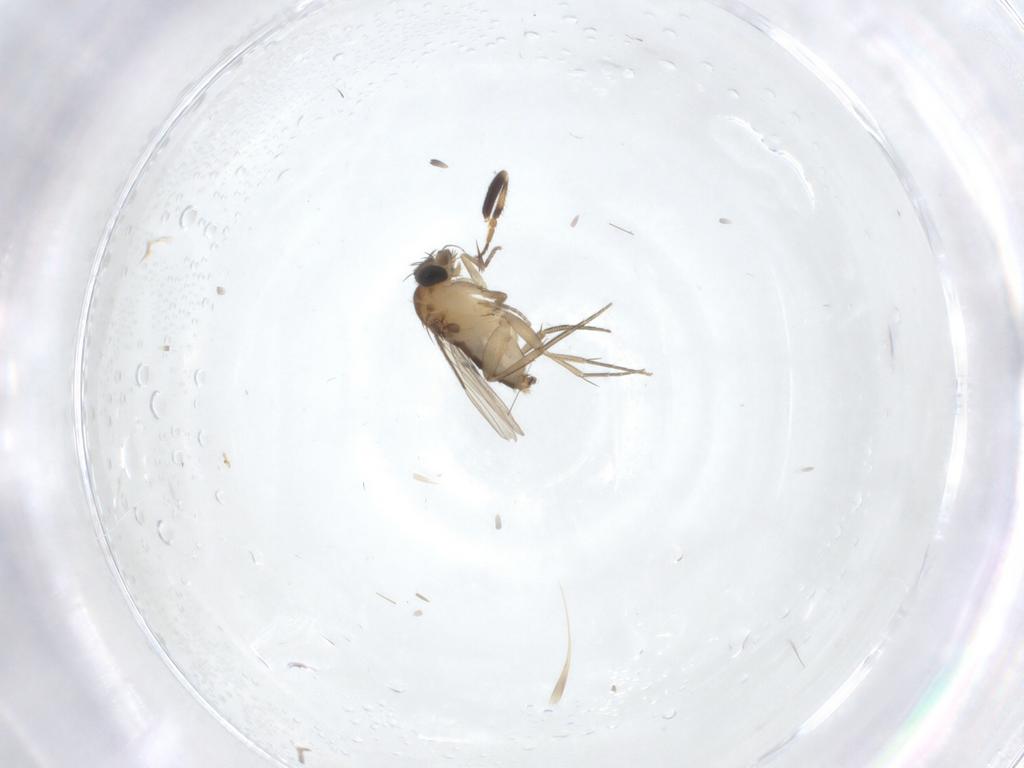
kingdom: Animalia
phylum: Arthropoda
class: Insecta
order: Diptera
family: Phoridae
